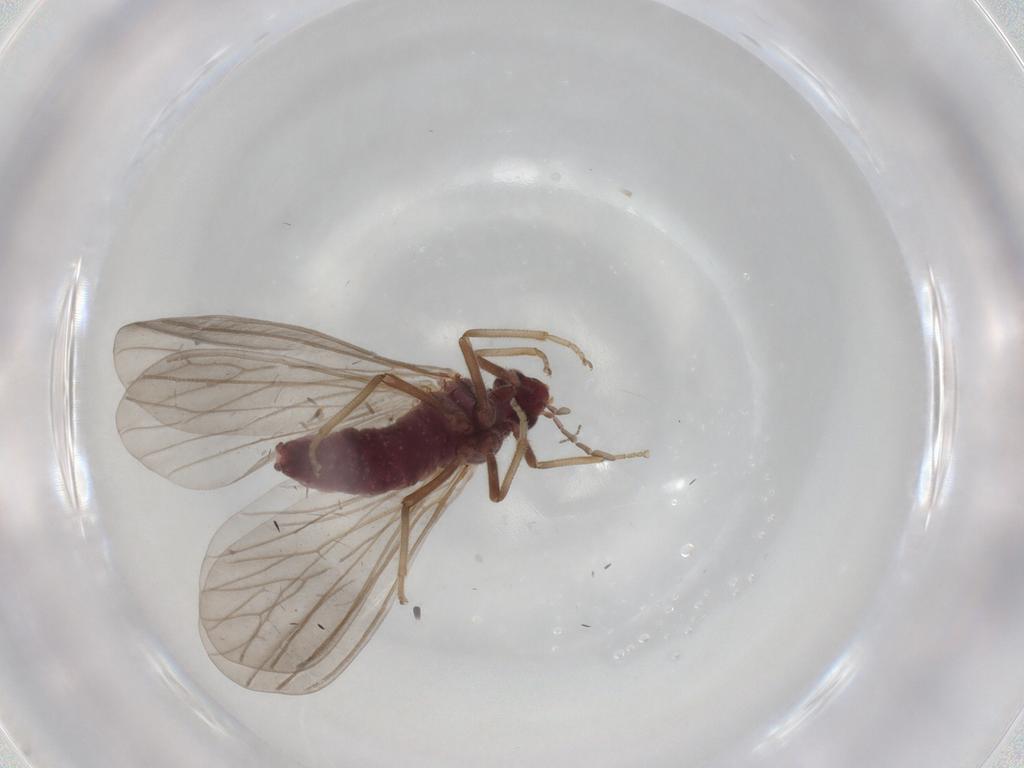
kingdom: Animalia
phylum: Arthropoda
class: Insecta
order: Neuroptera
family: Coniopterygidae
